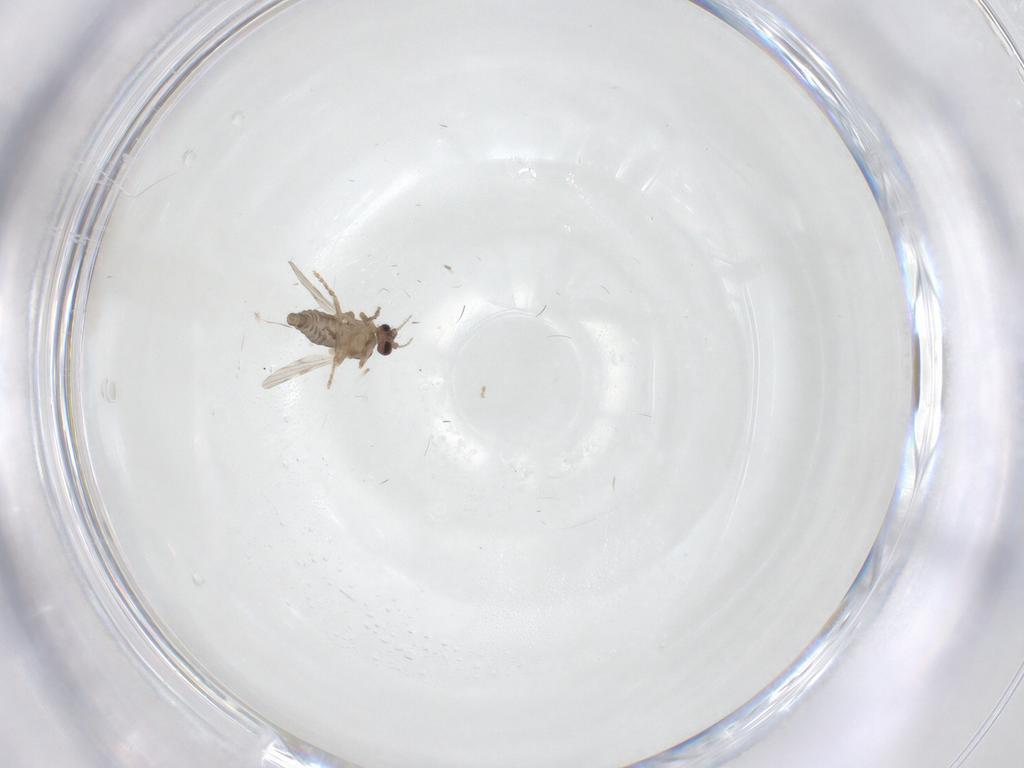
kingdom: Animalia
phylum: Arthropoda
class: Insecta
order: Diptera
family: Ceratopogonidae
